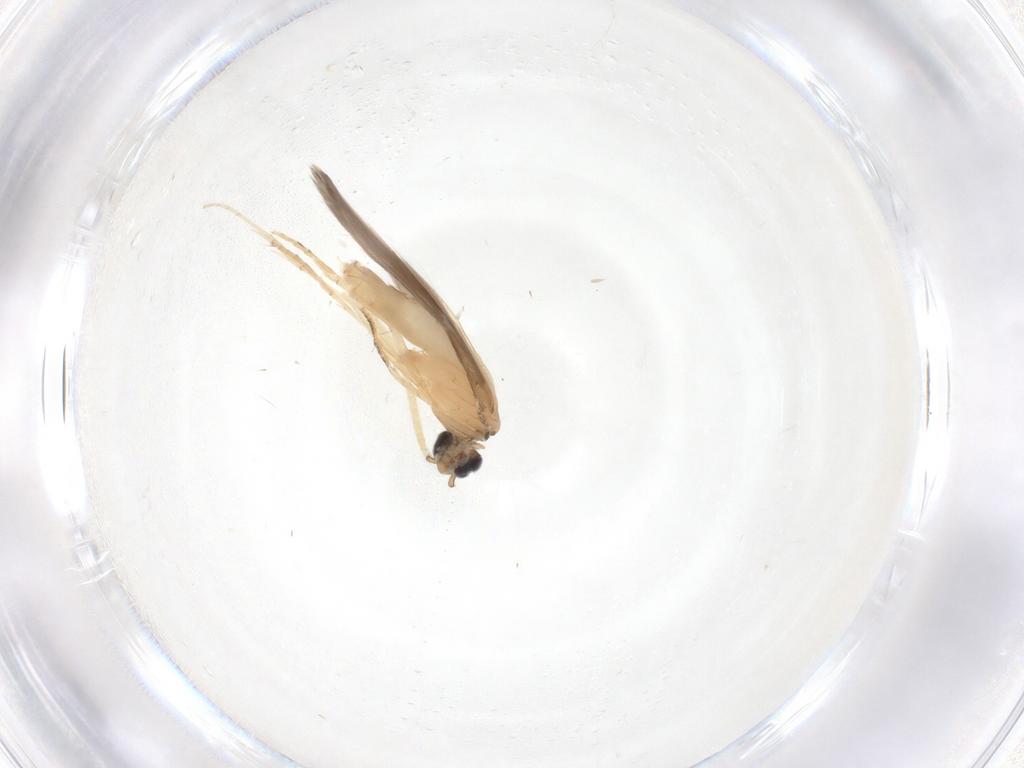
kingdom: Animalia
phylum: Arthropoda
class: Insecta
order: Trichoptera
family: Hydroptilidae
